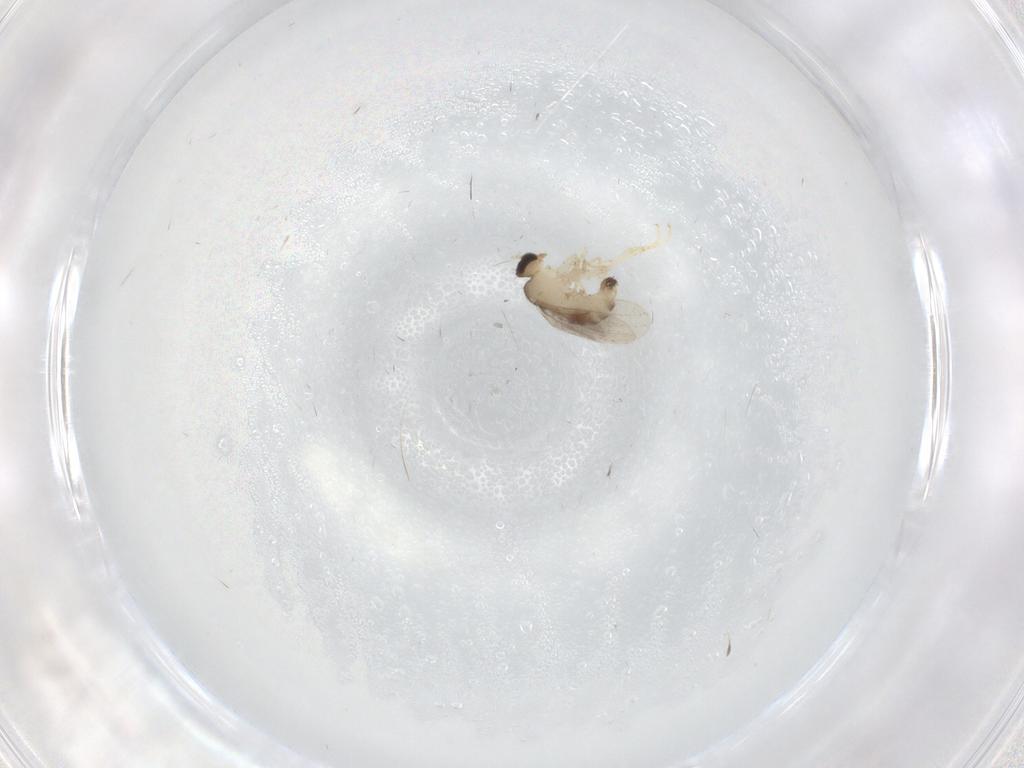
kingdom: Animalia
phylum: Arthropoda
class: Insecta
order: Diptera
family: Hybotidae
